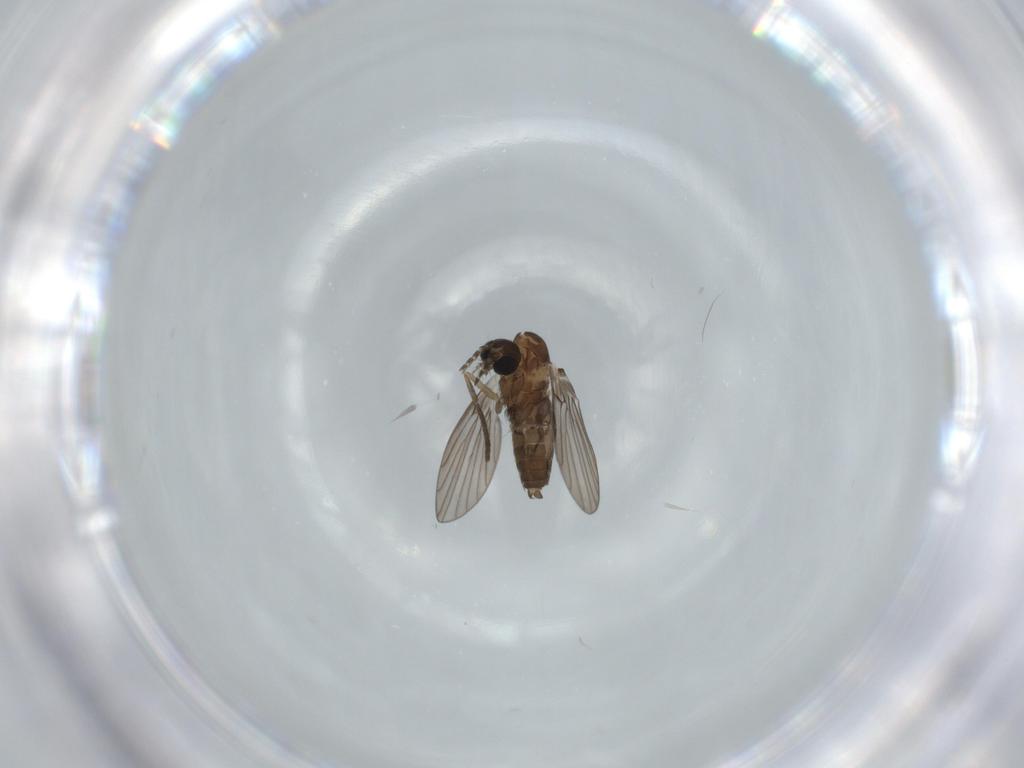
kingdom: Animalia
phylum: Arthropoda
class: Insecta
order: Diptera
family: Psychodidae
